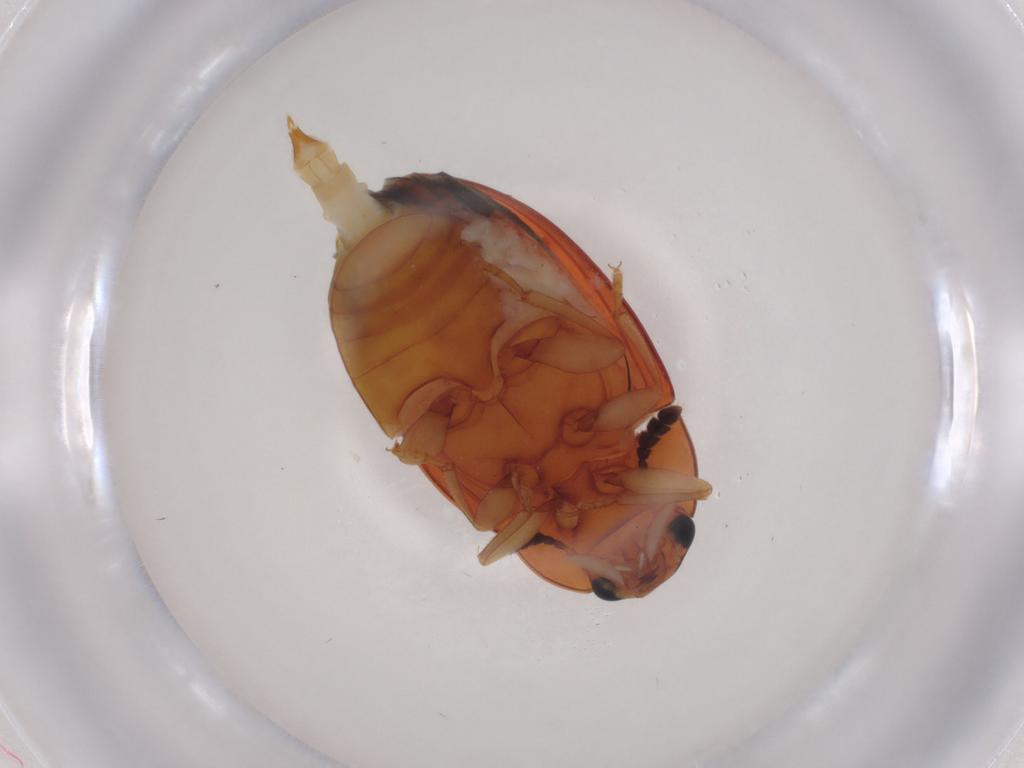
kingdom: Animalia
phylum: Arthropoda
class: Insecta
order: Coleoptera
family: Erotylidae
